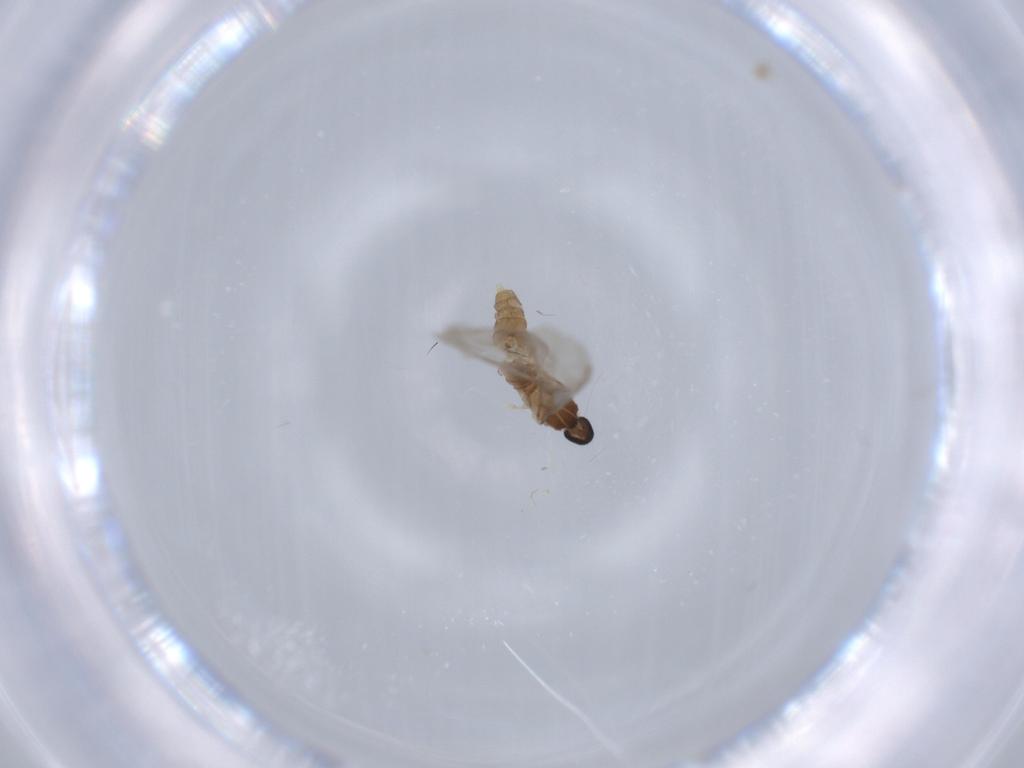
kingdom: Animalia
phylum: Arthropoda
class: Insecta
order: Diptera
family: Cecidomyiidae
